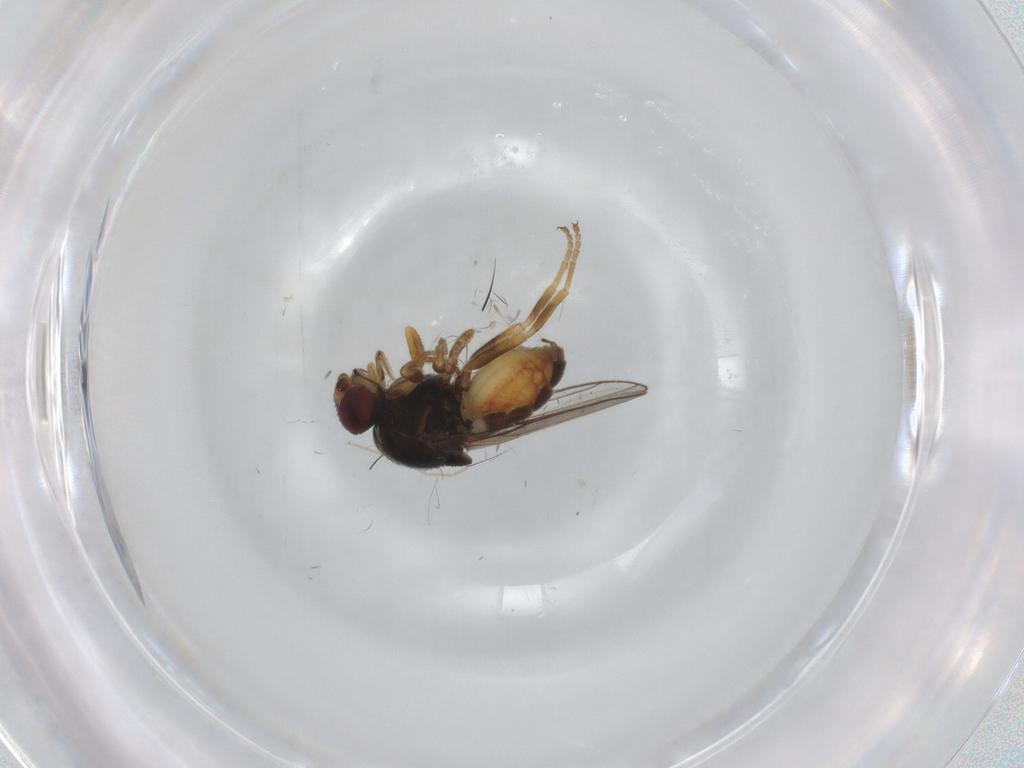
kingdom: Animalia
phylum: Arthropoda
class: Insecta
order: Diptera
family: Chloropidae
